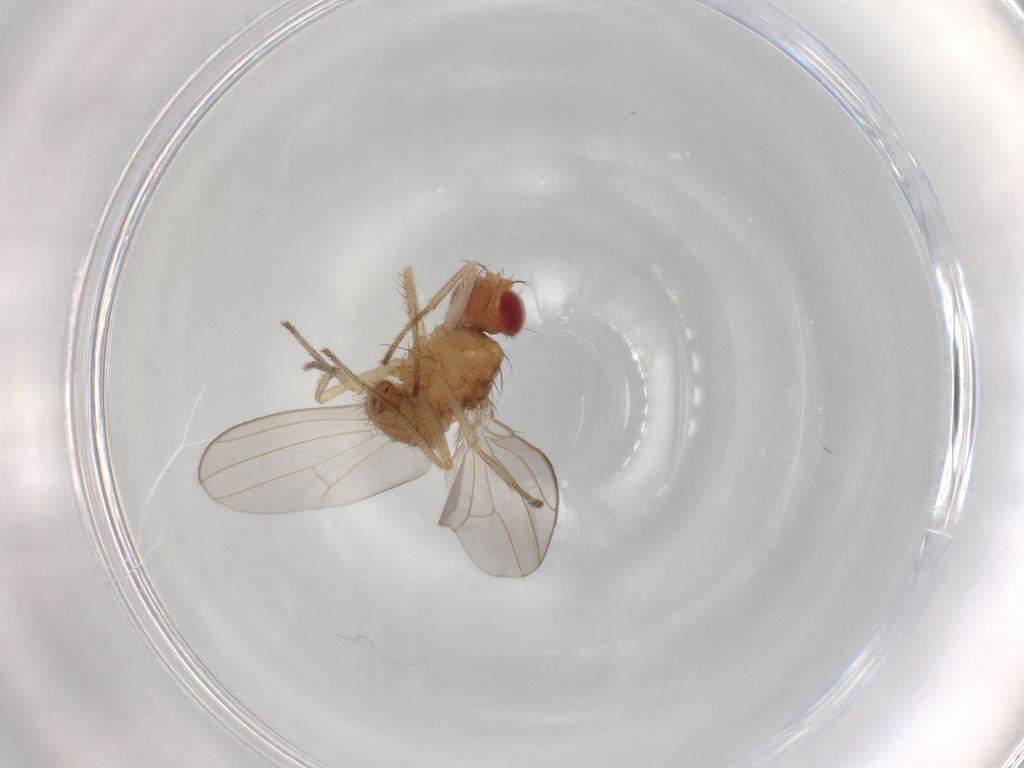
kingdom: Animalia
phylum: Arthropoda
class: Insecta
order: Diptera
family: Drosophilidae
